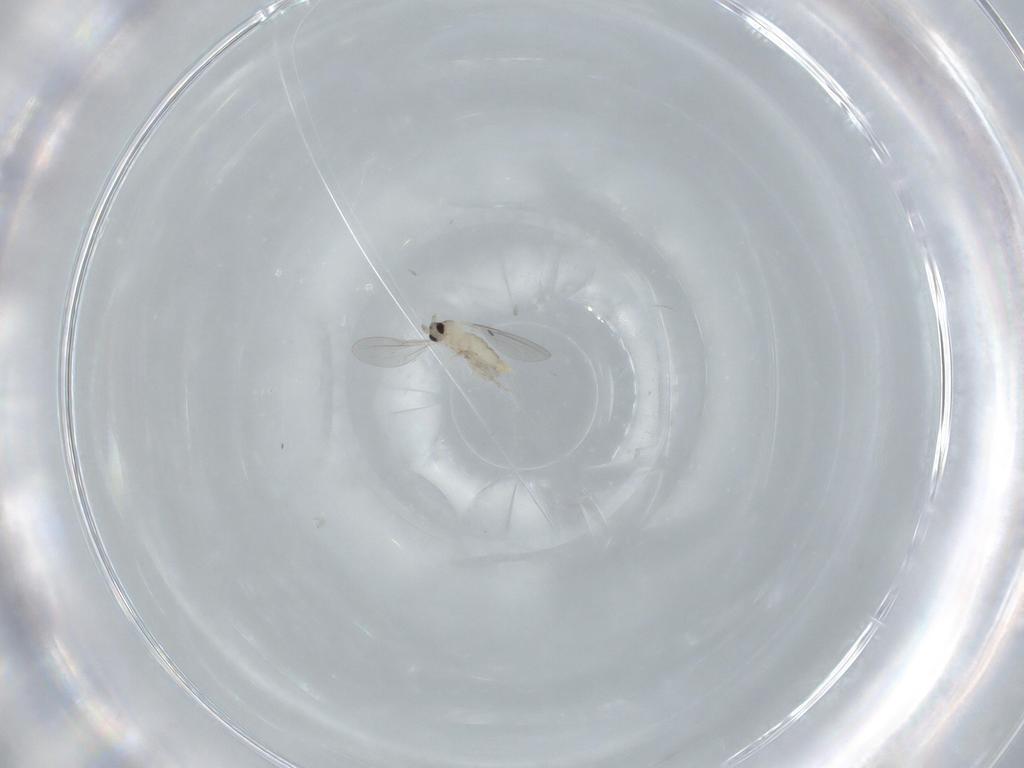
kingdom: Animalia
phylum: Arthropoda
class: Insecta
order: Diptera
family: Cecidomyiidae
